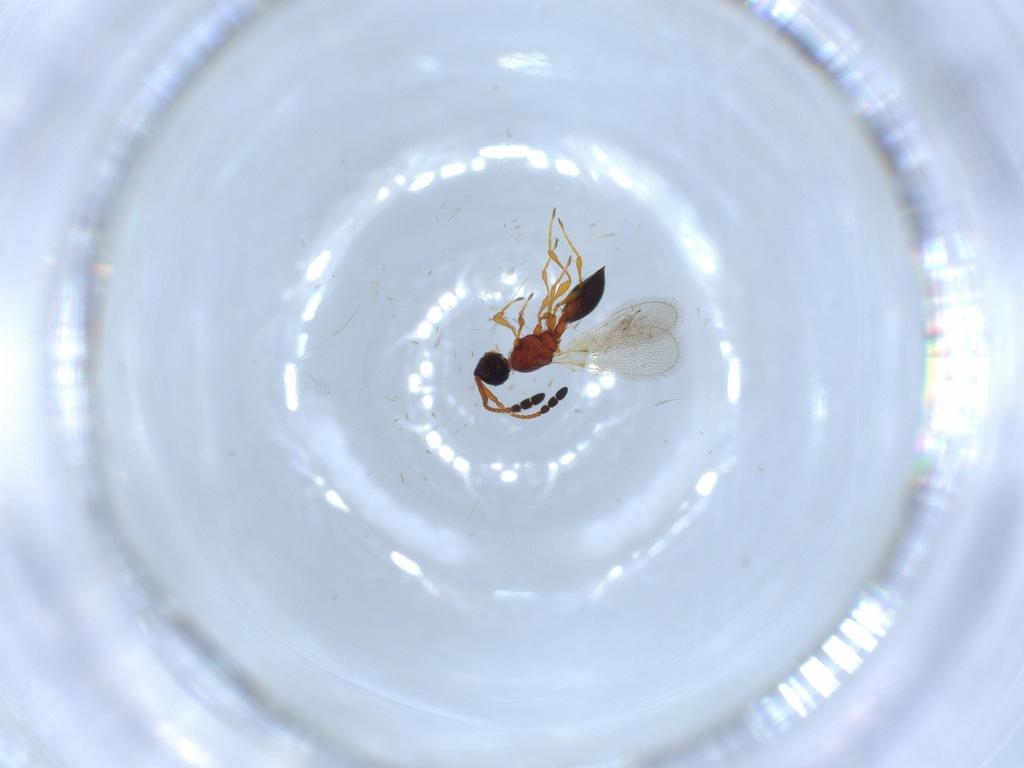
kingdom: Animalia
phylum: Arthropoda
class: Insecta
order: Hymenoptera
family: Diapriidae
